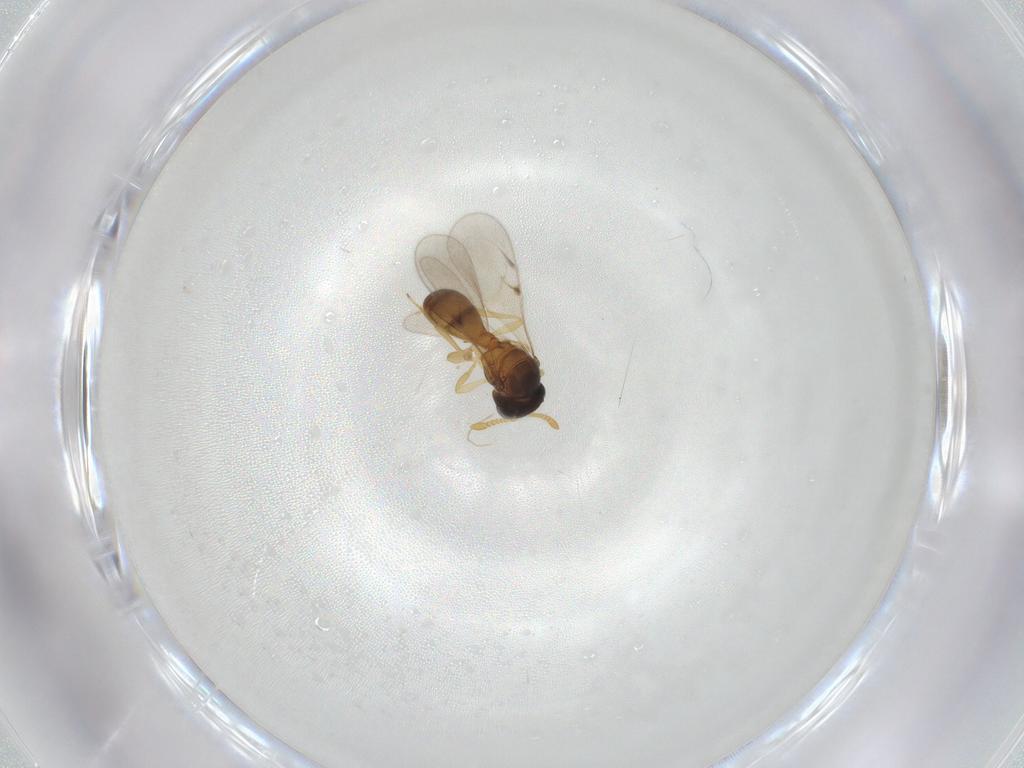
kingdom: Animalia
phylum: Arthropoda
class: Insecta
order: Hymenoptera
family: Scelionidae
